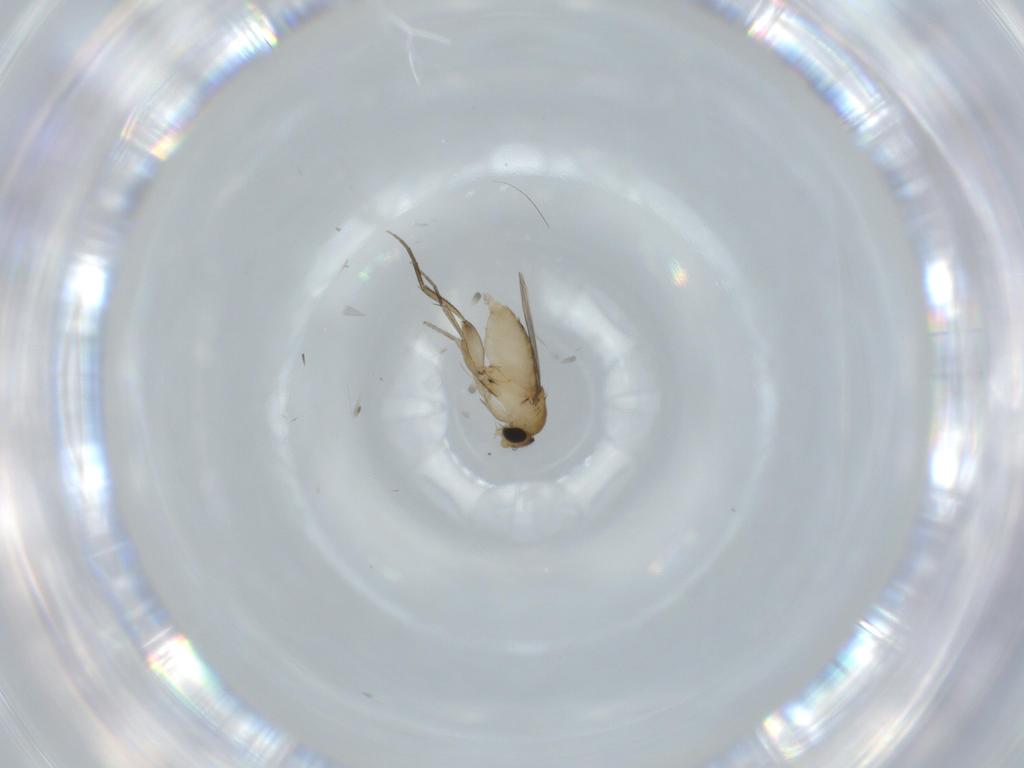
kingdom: Animalia
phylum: Arthropoda
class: Insecta
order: Diptera
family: Phoridae
